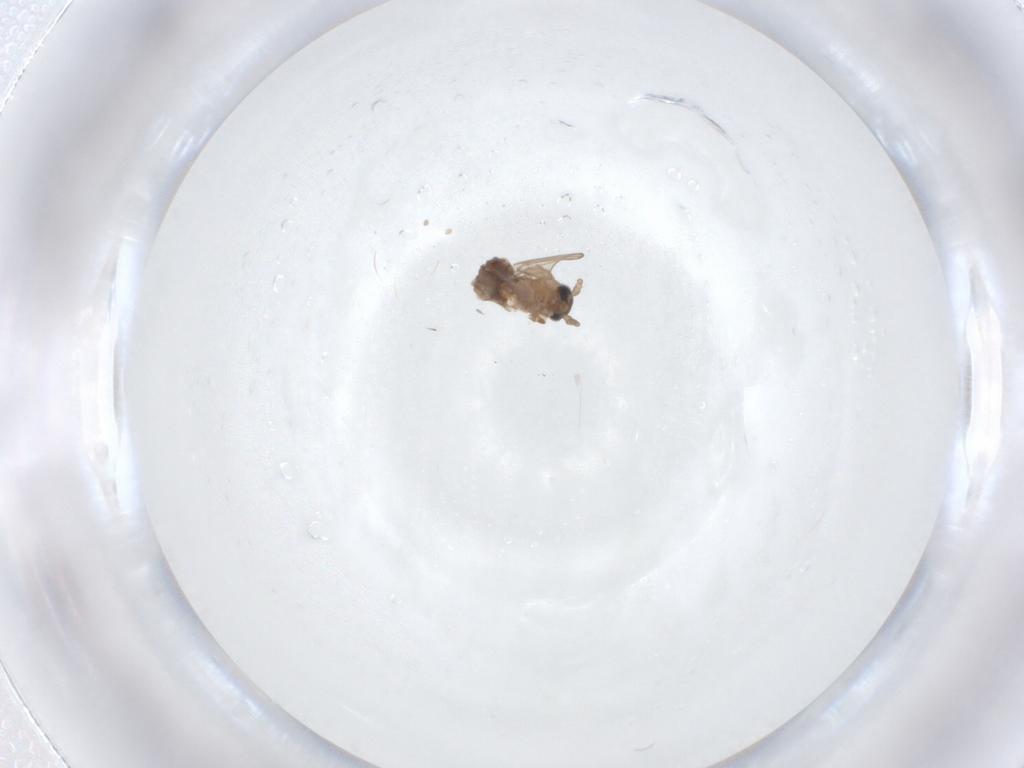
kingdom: Animalia
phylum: Arthropoda
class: Insecta
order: Diptera
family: Psychodidae
